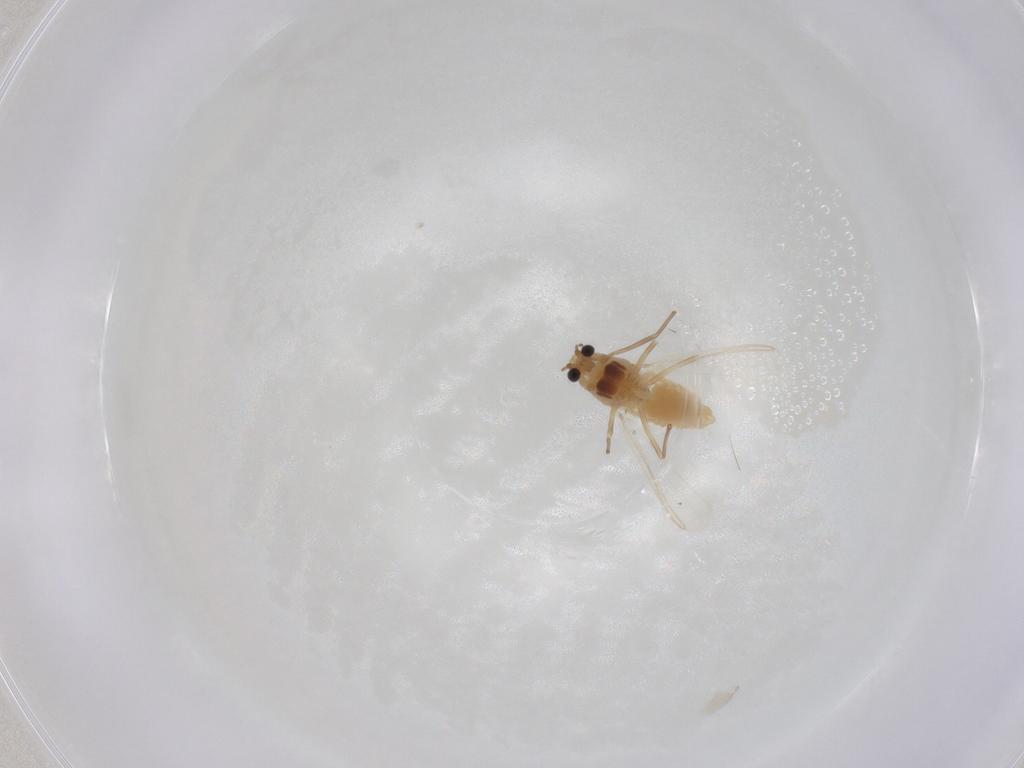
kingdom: Animalia
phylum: Arthropoda
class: Insecta
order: Diptera
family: Chironomidae
